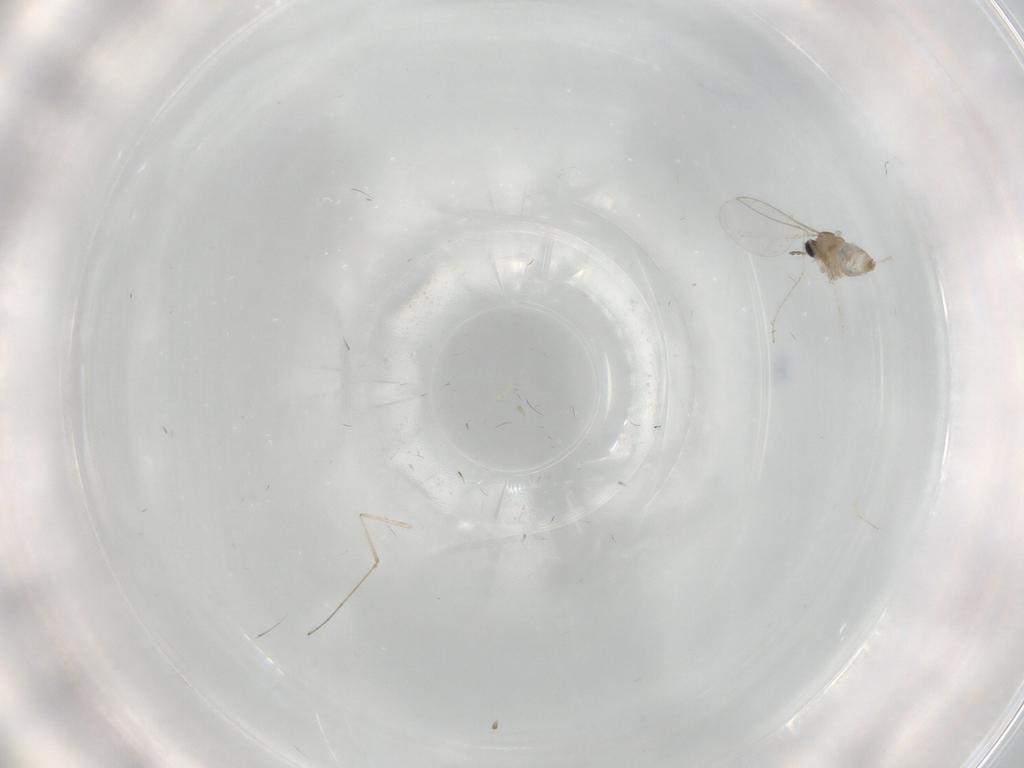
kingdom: Animalia
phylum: Arthropoda
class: Insecta
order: Diptera
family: Cecidomyiidae
